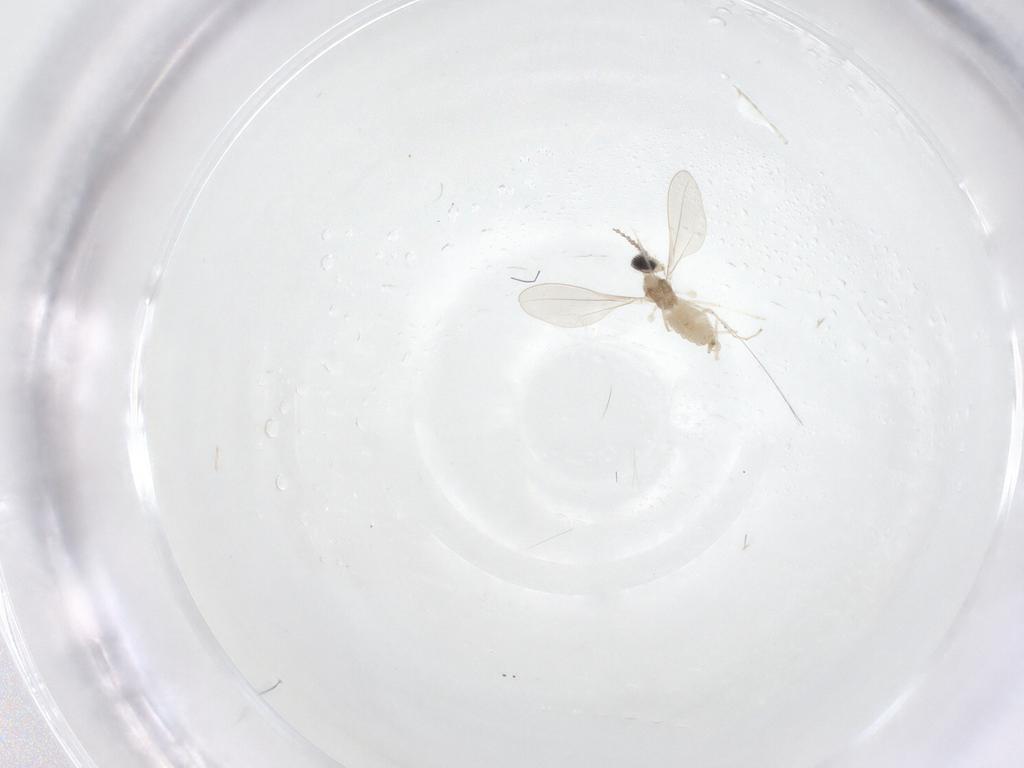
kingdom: Animalia
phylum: Arthropoda
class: Insecta
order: Diptera
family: Cecidomyiidae
